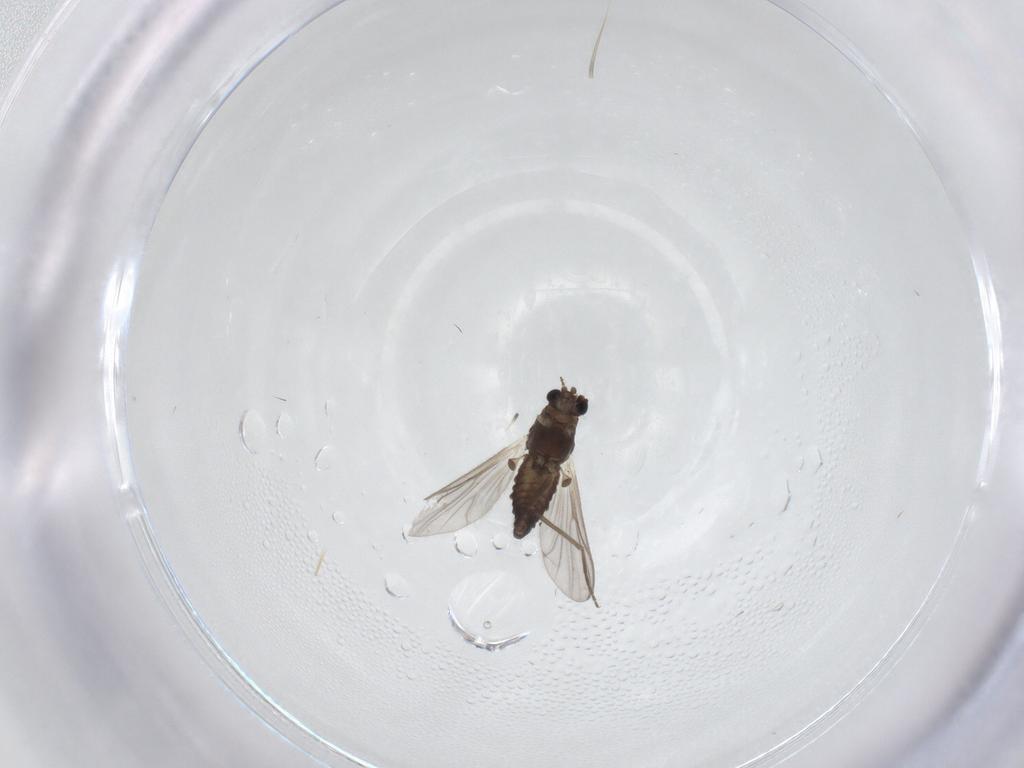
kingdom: Animalia
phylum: Arthropoda
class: Insecta
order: Diptera
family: Chironomidae
